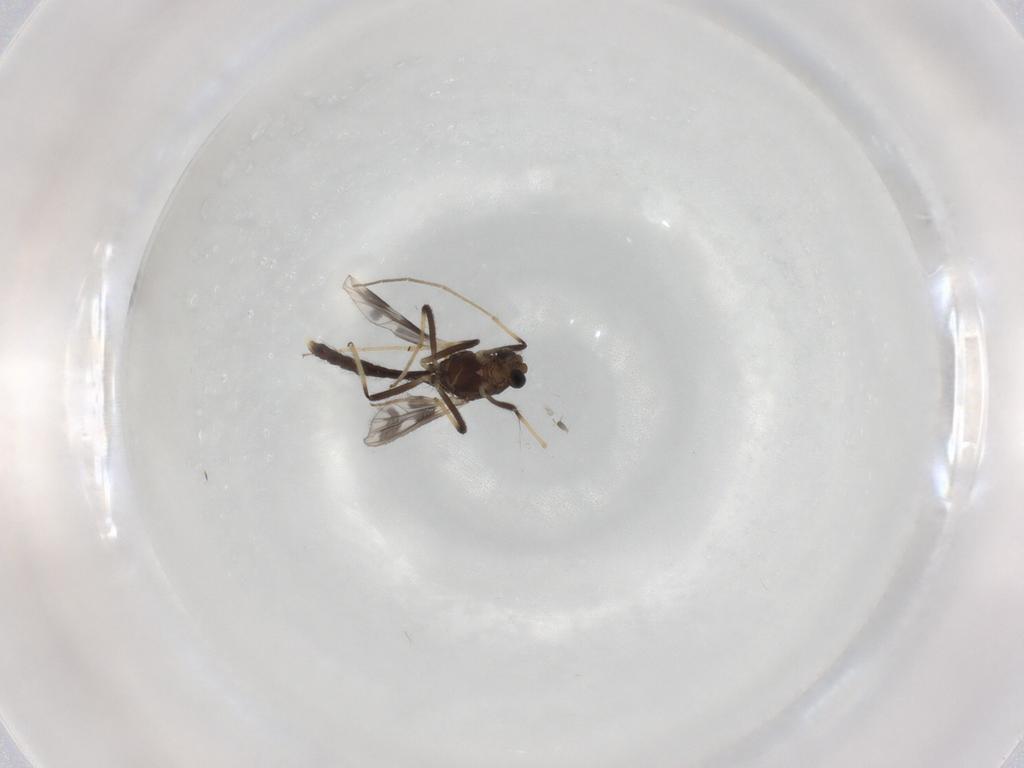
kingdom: Animalia
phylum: Arthropoda
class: Insecta
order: Diptera
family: Chironomidae
